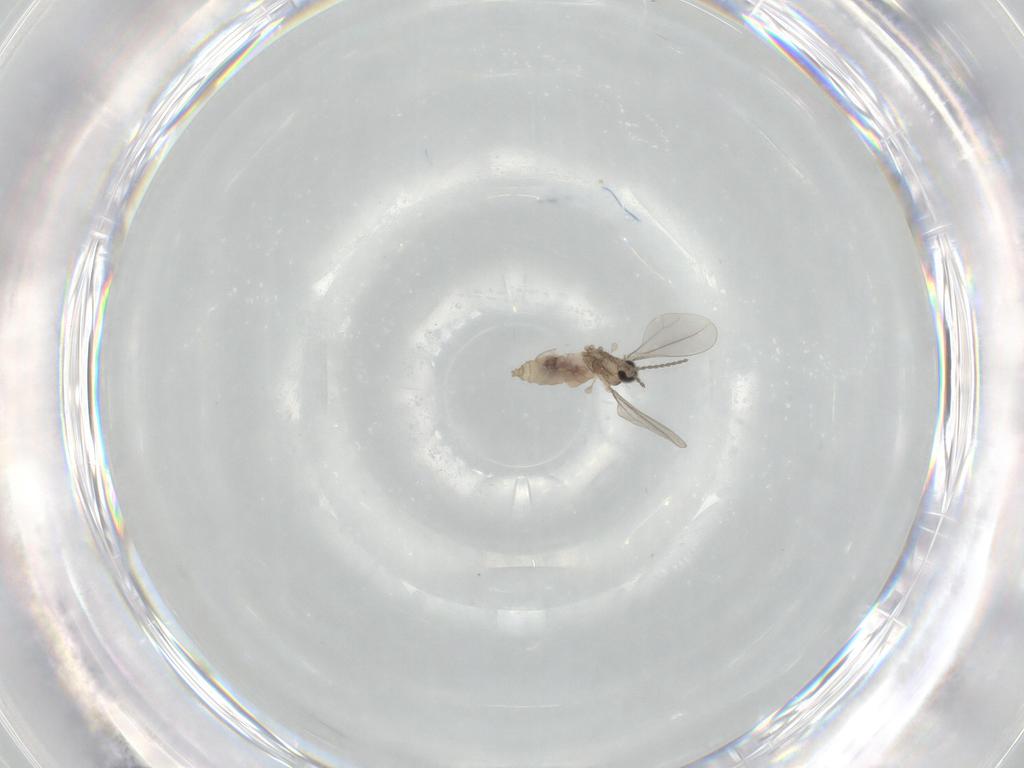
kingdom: Animalia
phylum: Arthropoda
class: Insecta
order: Diptera
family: Cecidomyiidae
